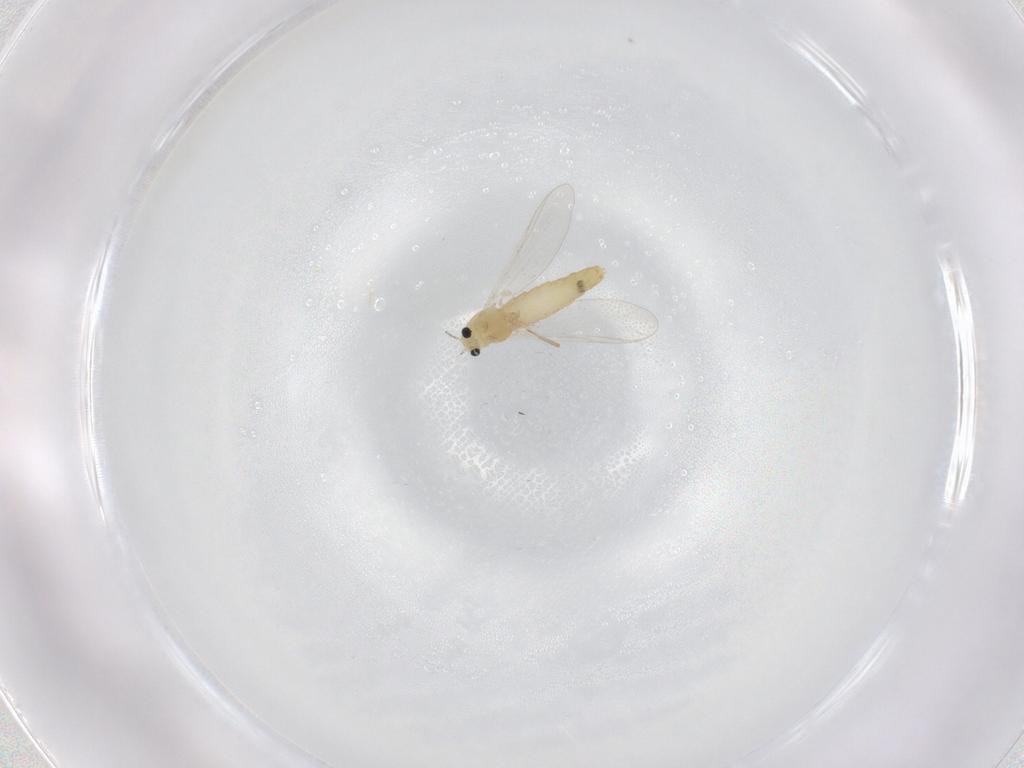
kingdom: Animalia
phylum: Arthropoda
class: Insecta
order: Diptera
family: Chironomidae
